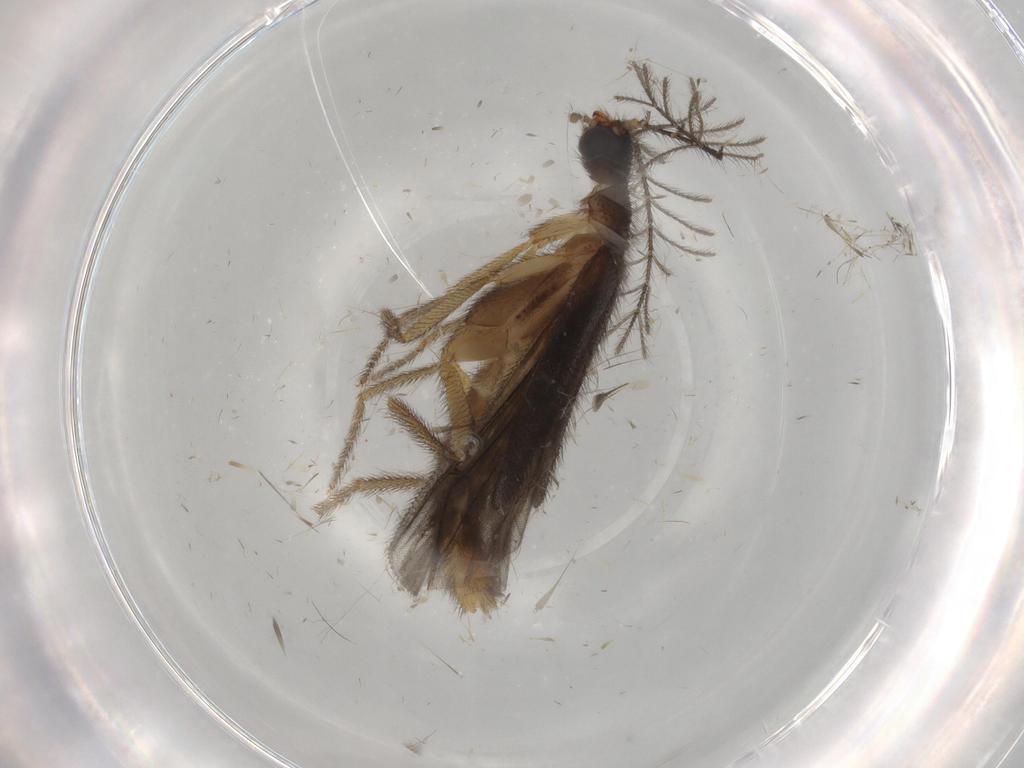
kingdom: Animalia
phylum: Arthropoda
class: Insecta
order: Coleoptera
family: Phengodidae
